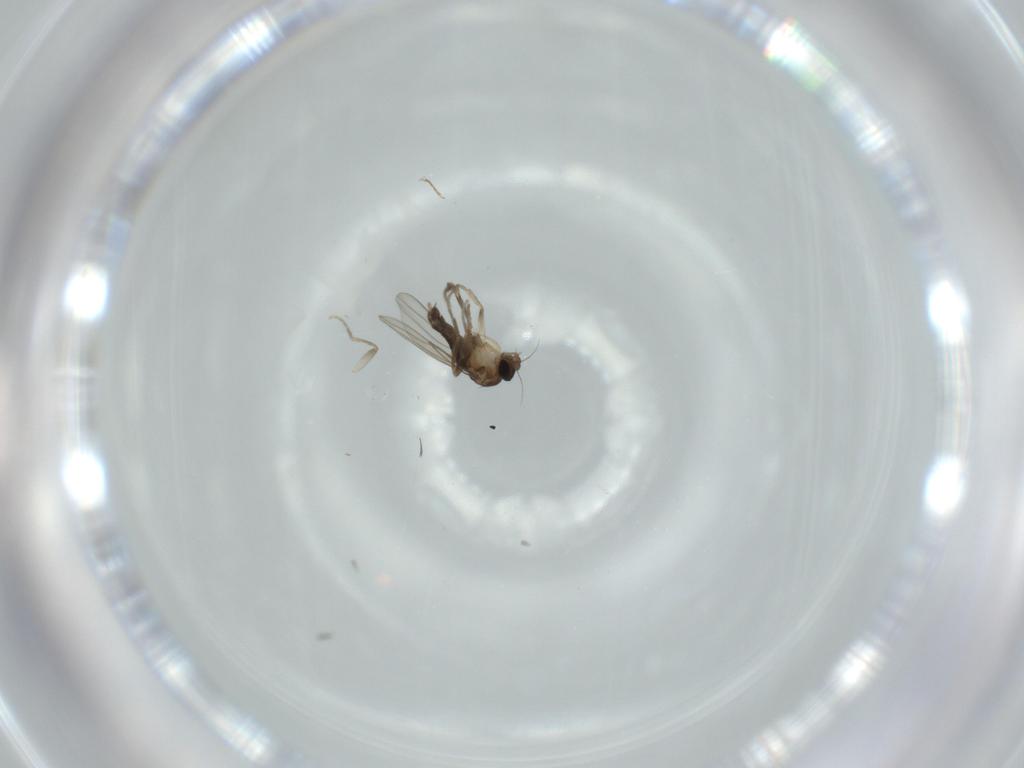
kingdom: Animalia
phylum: Arthropoda
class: Insecta
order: Diptera
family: Phoridae
